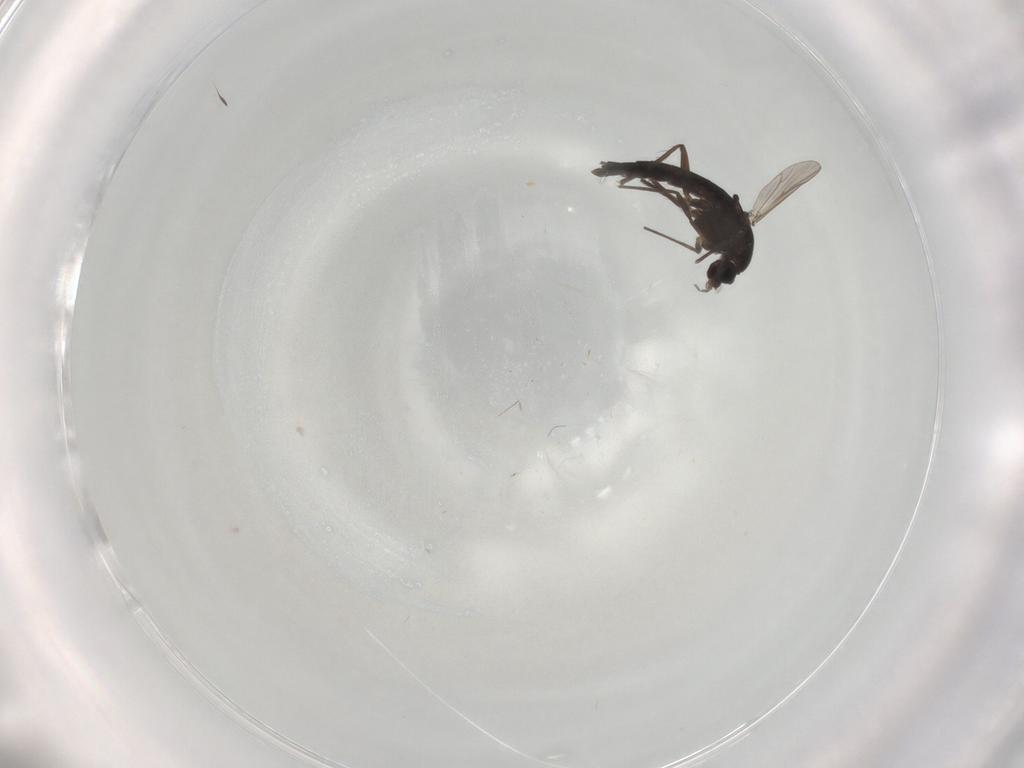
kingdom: Animalia
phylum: Arthropoda
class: Insecta
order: Diptera
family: Chironomidae
